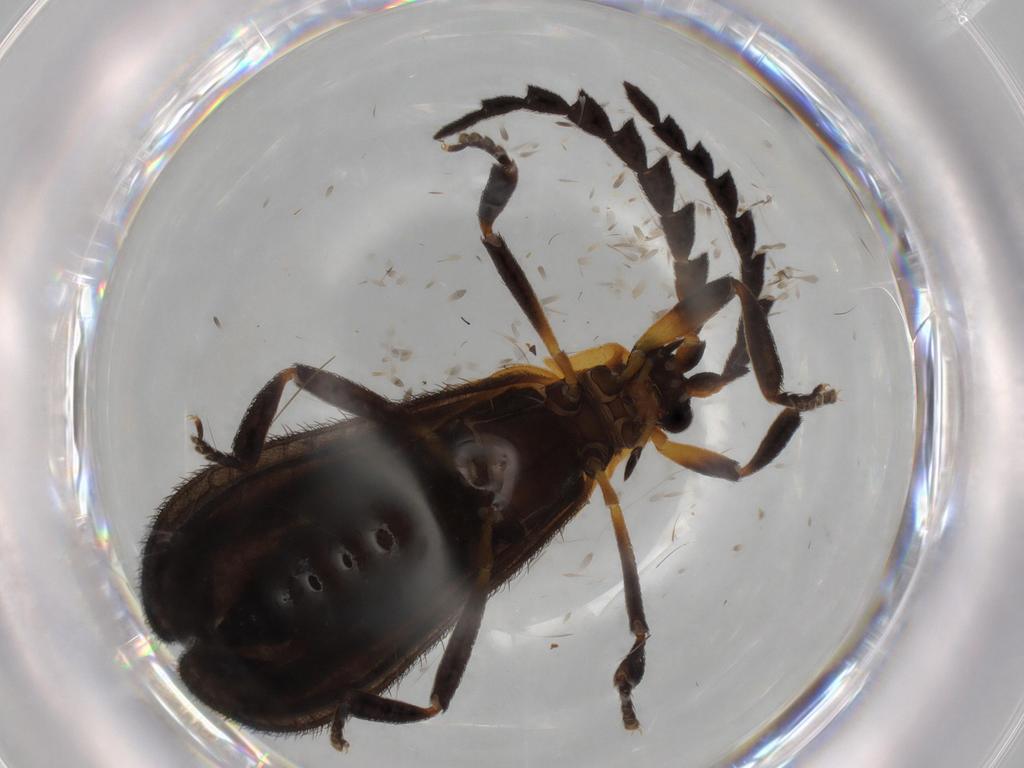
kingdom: Animalia
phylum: Arthropoda
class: Insecta
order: Coleoptera
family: Lycidae
